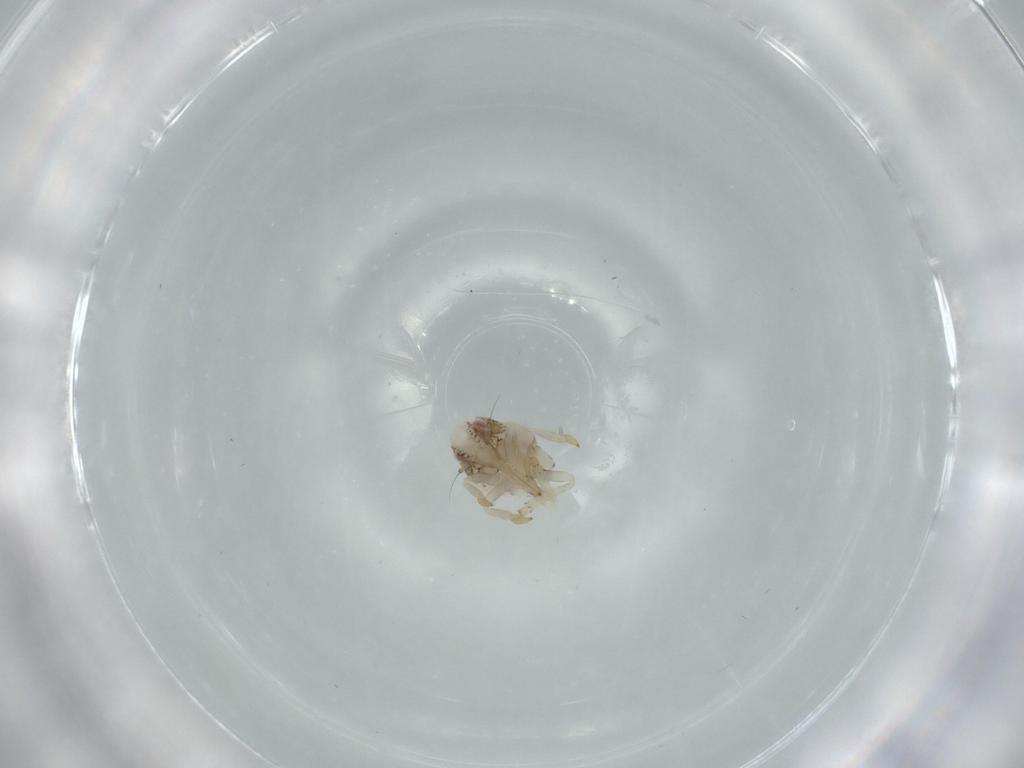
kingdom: Animalia
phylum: Arthropoda
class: Insecta
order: Hemiptera
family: Acanaloniidae
